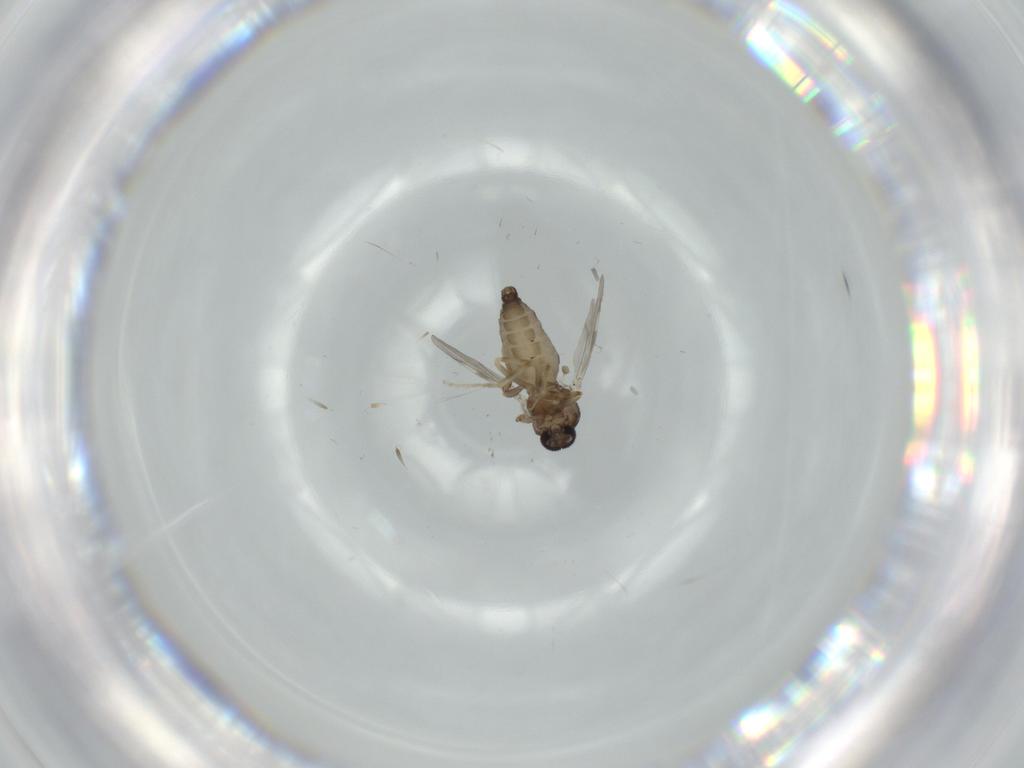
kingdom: Animalia
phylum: Arthropoda
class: Insecta
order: Diptera
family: Ceratopogonidae
